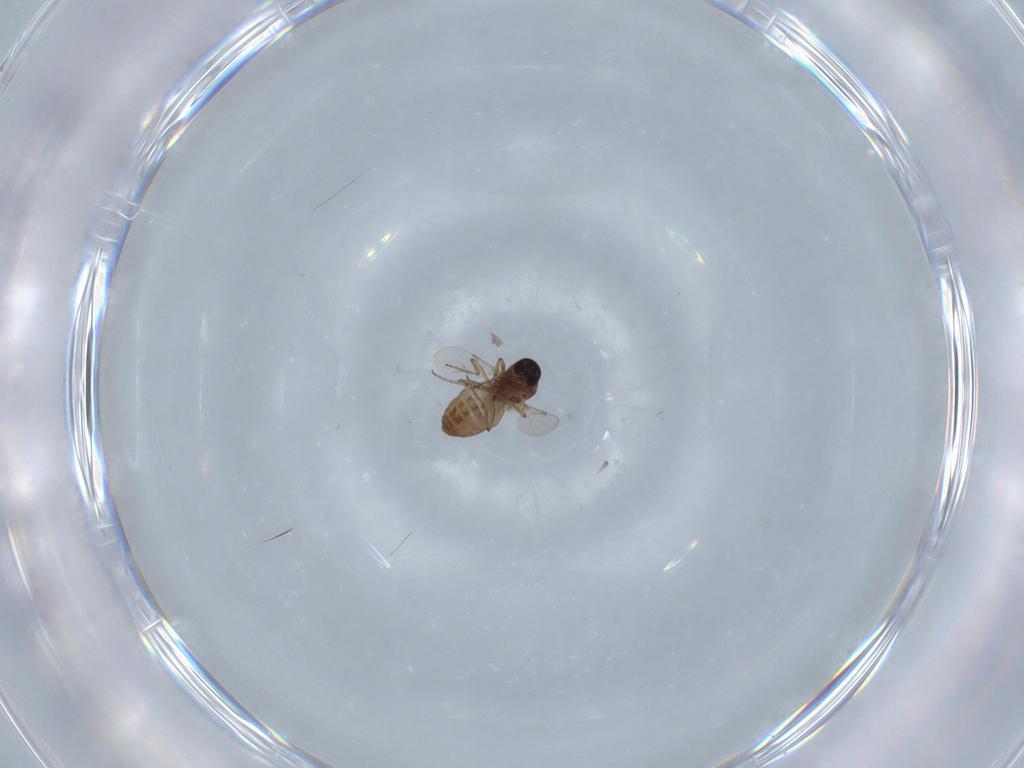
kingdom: Animalia
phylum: Arthropoda
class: Insecta
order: Diptera
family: Ceratopogonidae
